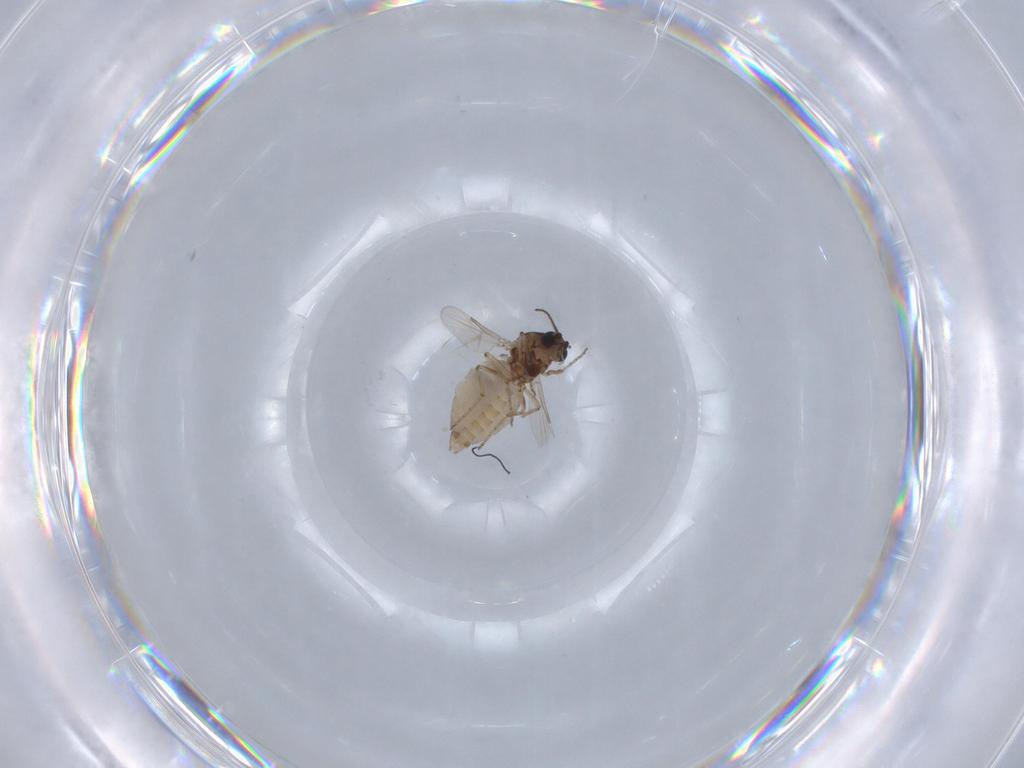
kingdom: Animalia
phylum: Arthropoda
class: Insecta
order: Diptera
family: Ceratopogonidae
